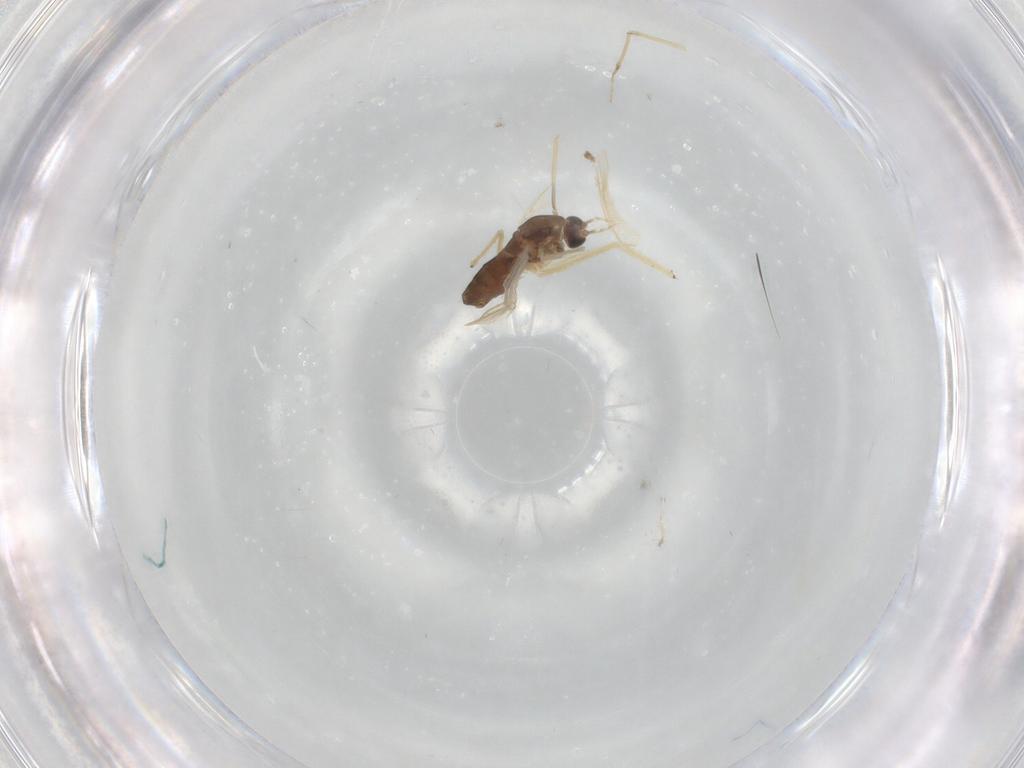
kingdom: Animalia
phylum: Arthropoda
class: Insecta
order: Diptera
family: Chironomidae
